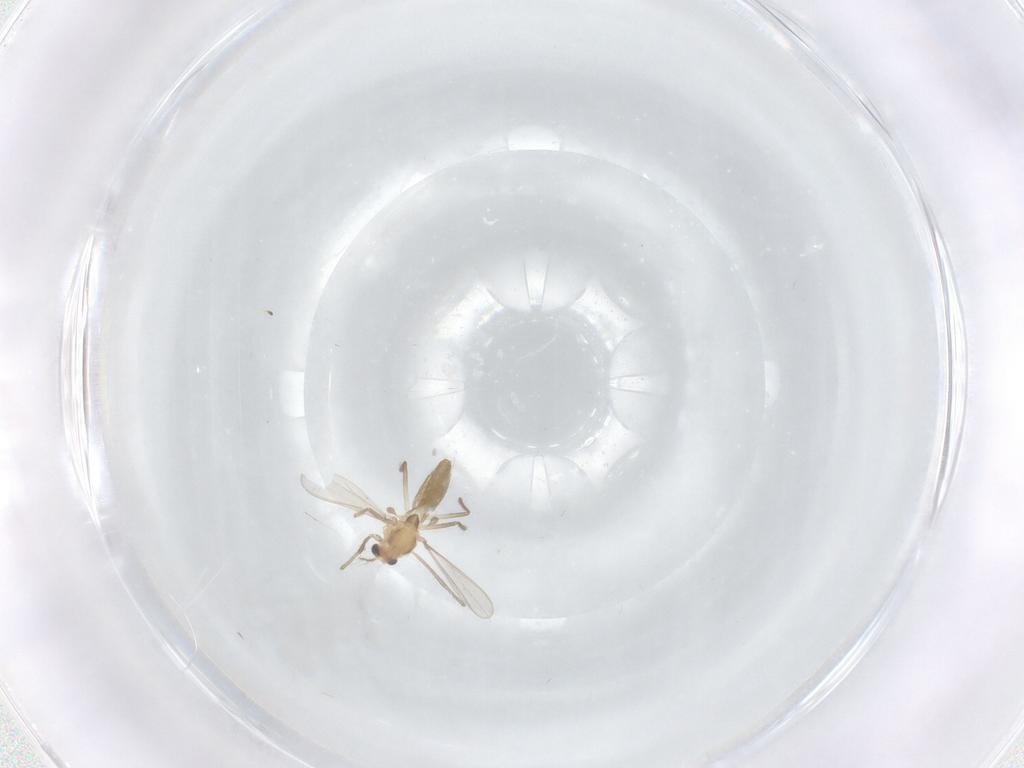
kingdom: Animalia
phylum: Arthropoda
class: Insecta
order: Diptera
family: Chironomidae
